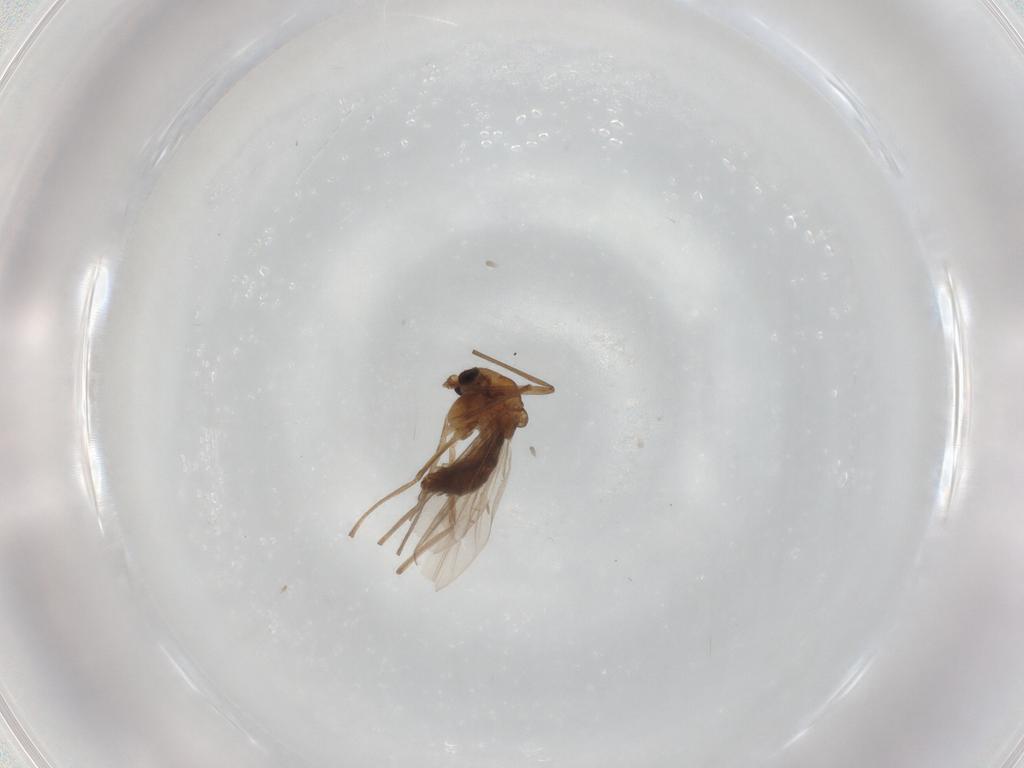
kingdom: Animalia
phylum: Arthropoda
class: Insecta
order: Diptera
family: Chironomidae
